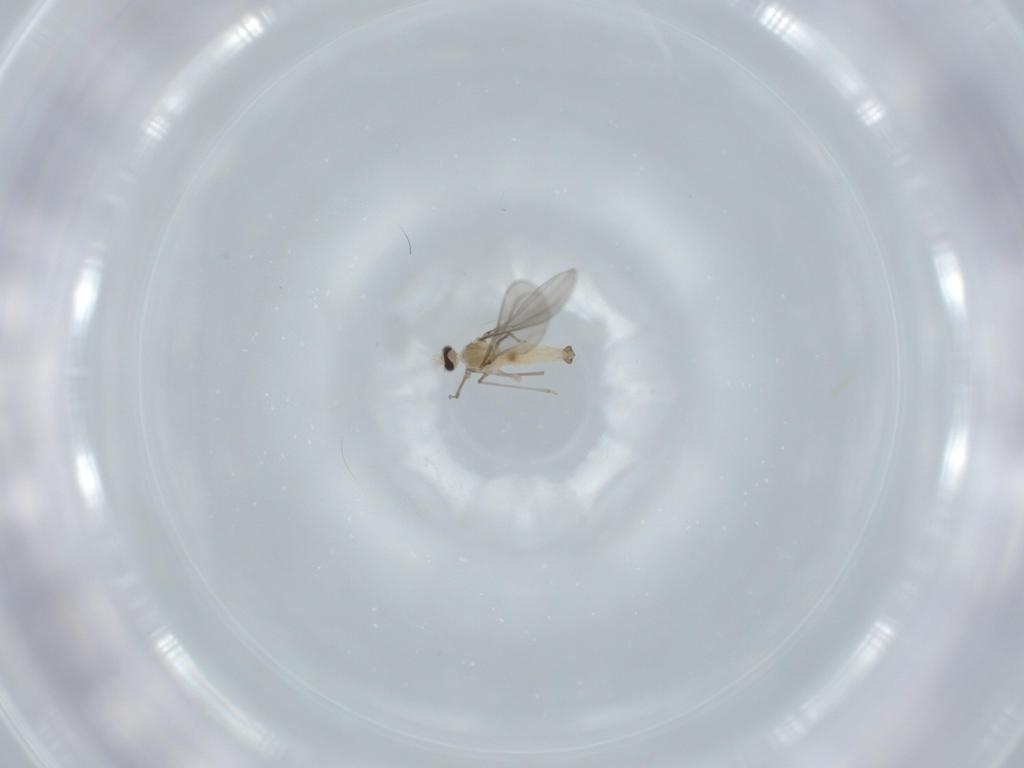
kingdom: Animalia
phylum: Arthropoda
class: Insecta
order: Diptera
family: Cecidomyiidae
